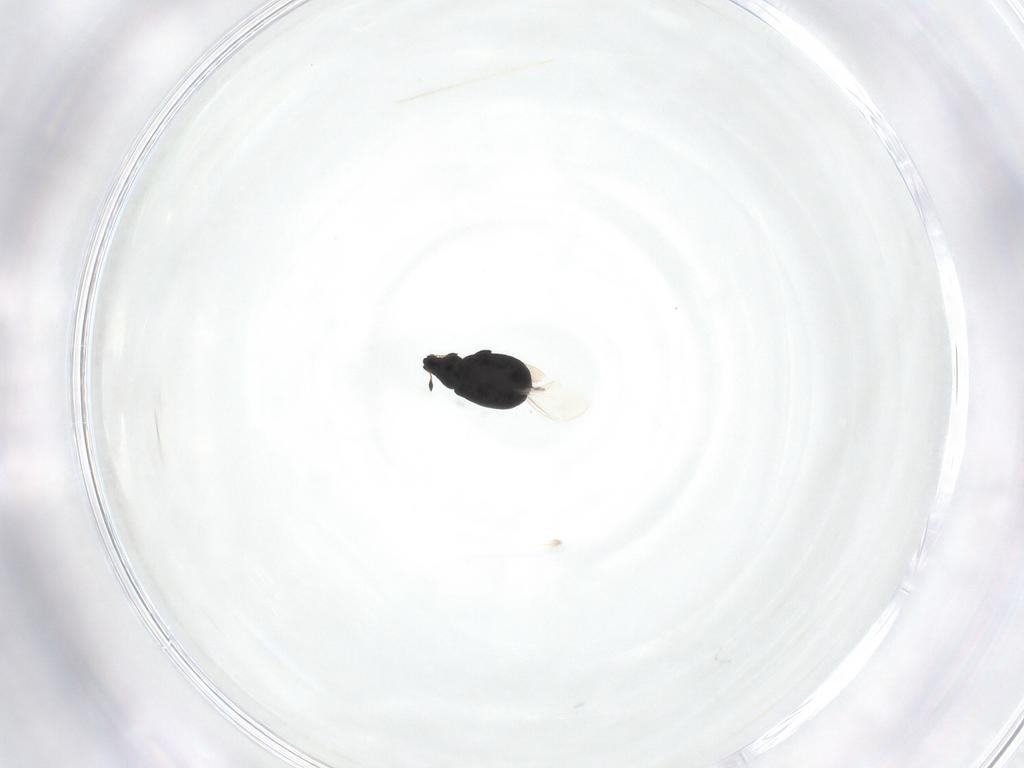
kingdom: Animalia
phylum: Arthropoda
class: Insecta
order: Coleoptera
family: Curculionidae
